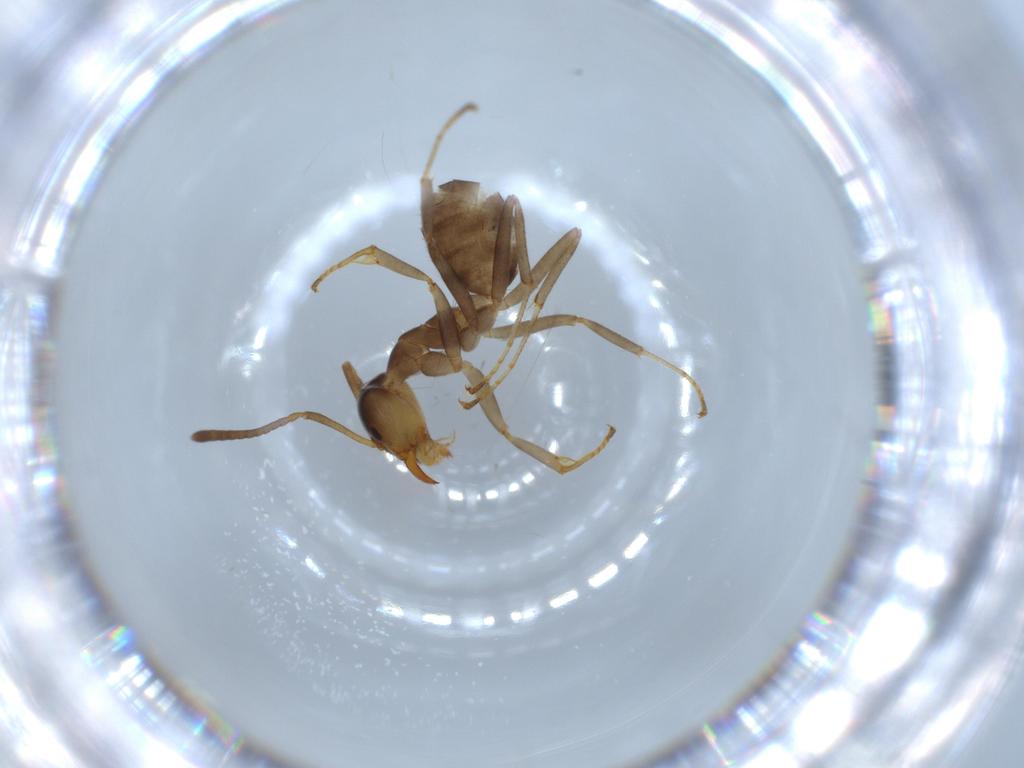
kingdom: Animalia
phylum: Arthropoda
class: Insecta
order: Hymenoptera
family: Formicidae
